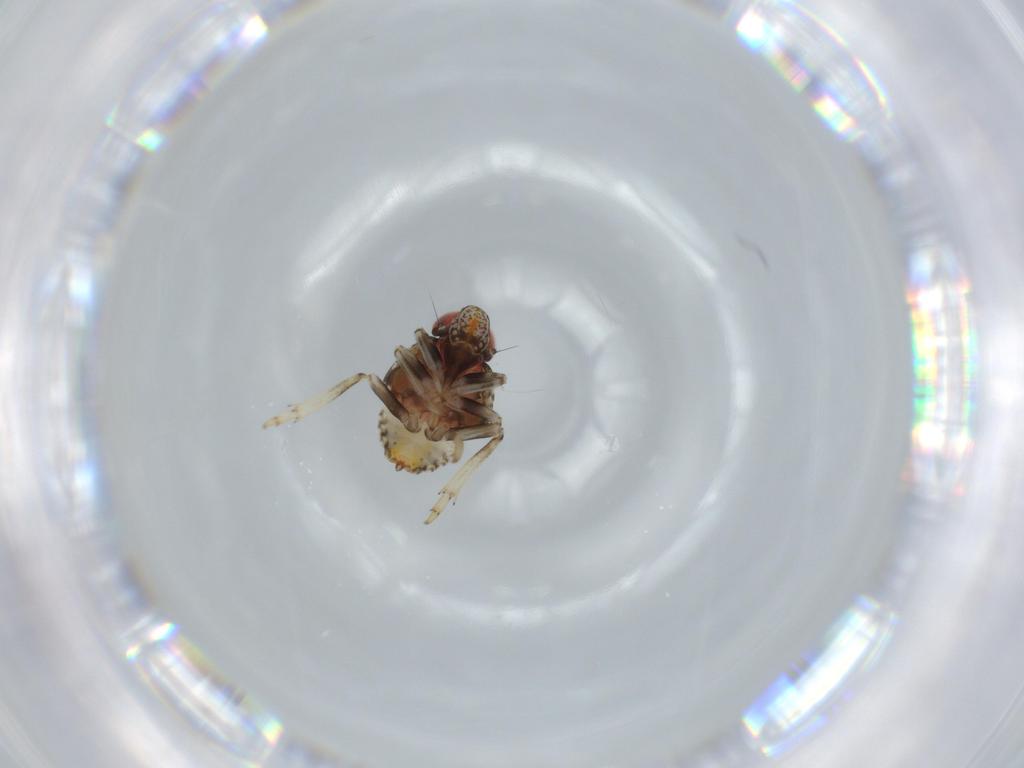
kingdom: Animalia
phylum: Arthropoda
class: Insecta
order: Hemiptera
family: Issidae
